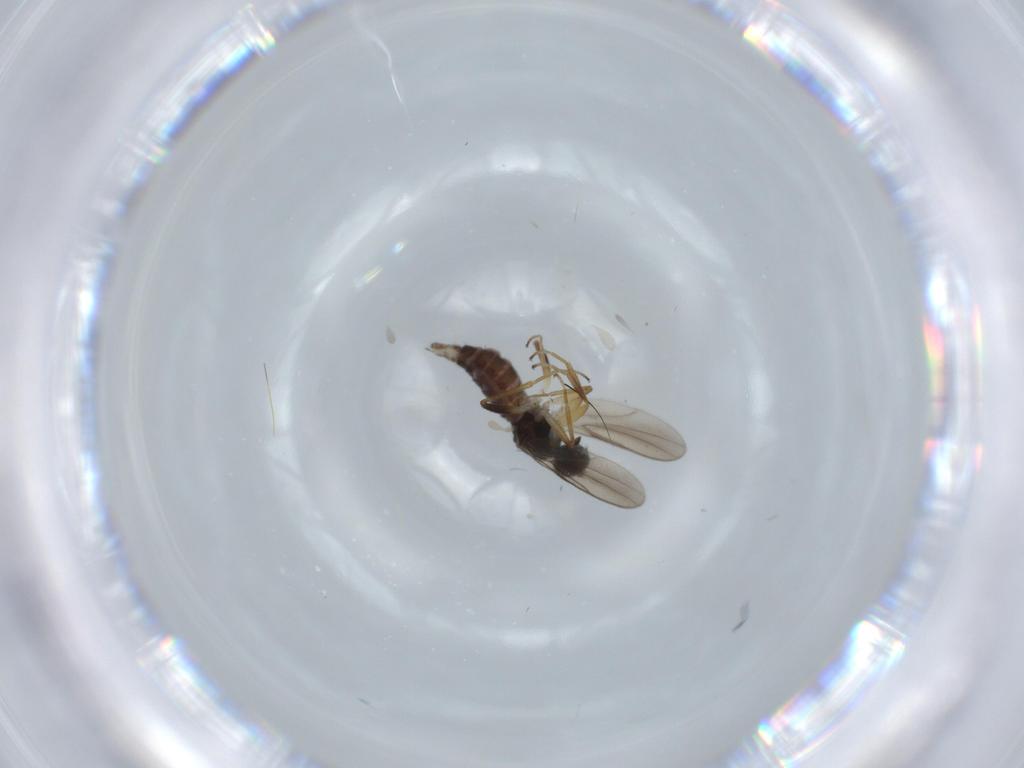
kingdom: Animalia
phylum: Arthropoda
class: Insecta
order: Diptera
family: Hybotidae
